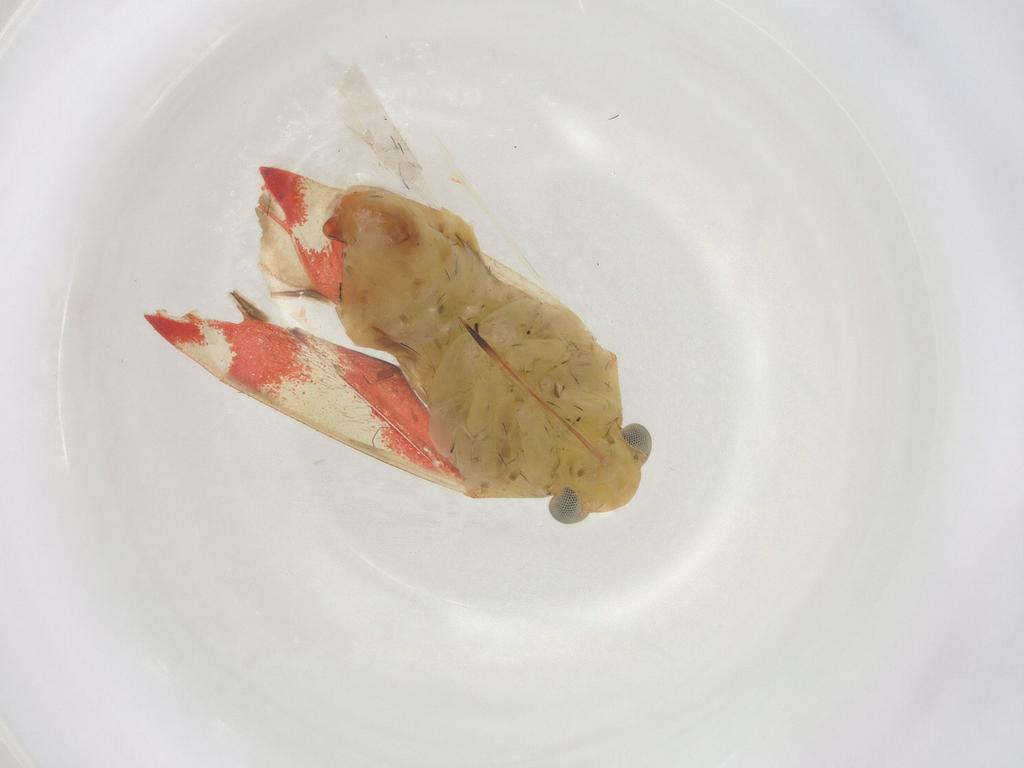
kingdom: Animalia
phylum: Arthropoda
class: Insecta
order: Hemiptera
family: Miridae
